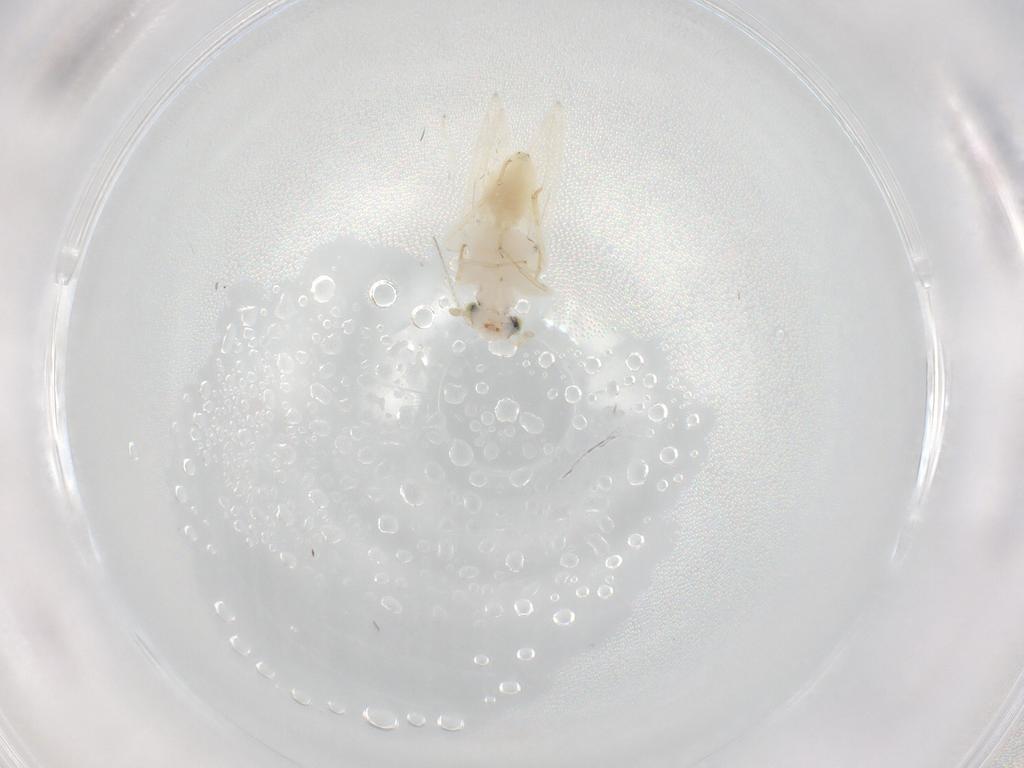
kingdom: Animalia
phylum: Arthropoda
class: Insecta
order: Psocodea
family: Lepidopsocidae
